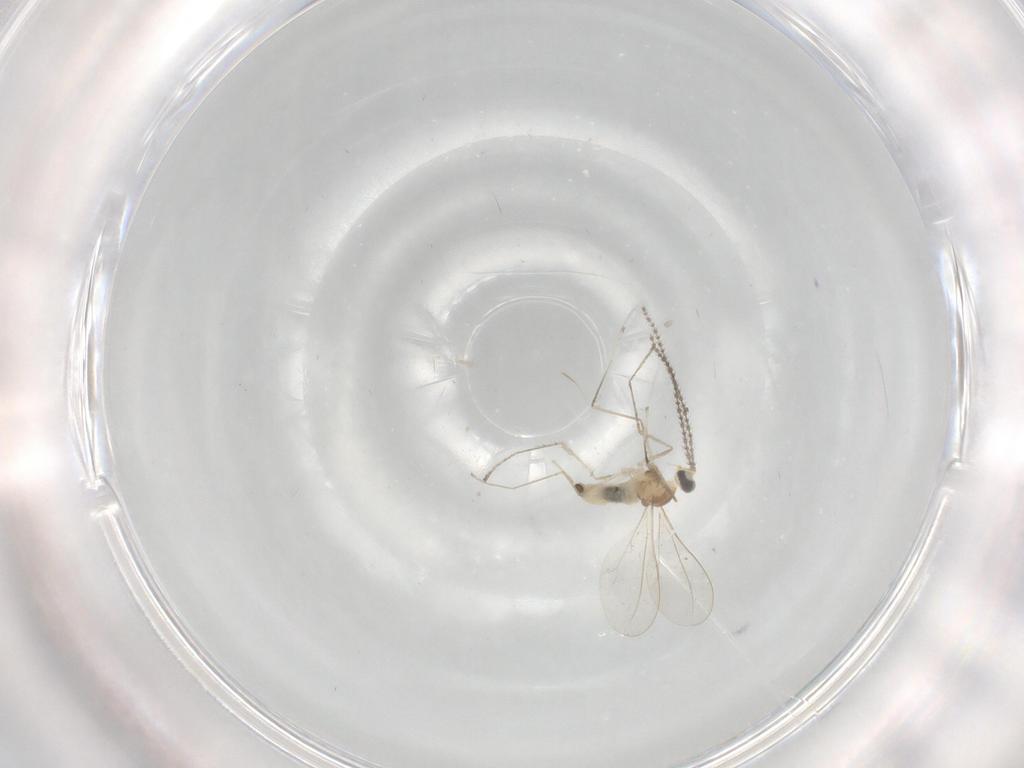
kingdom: Animalia
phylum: Arthropoda
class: Insecta
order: Diptera
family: Cecidomyiidae
